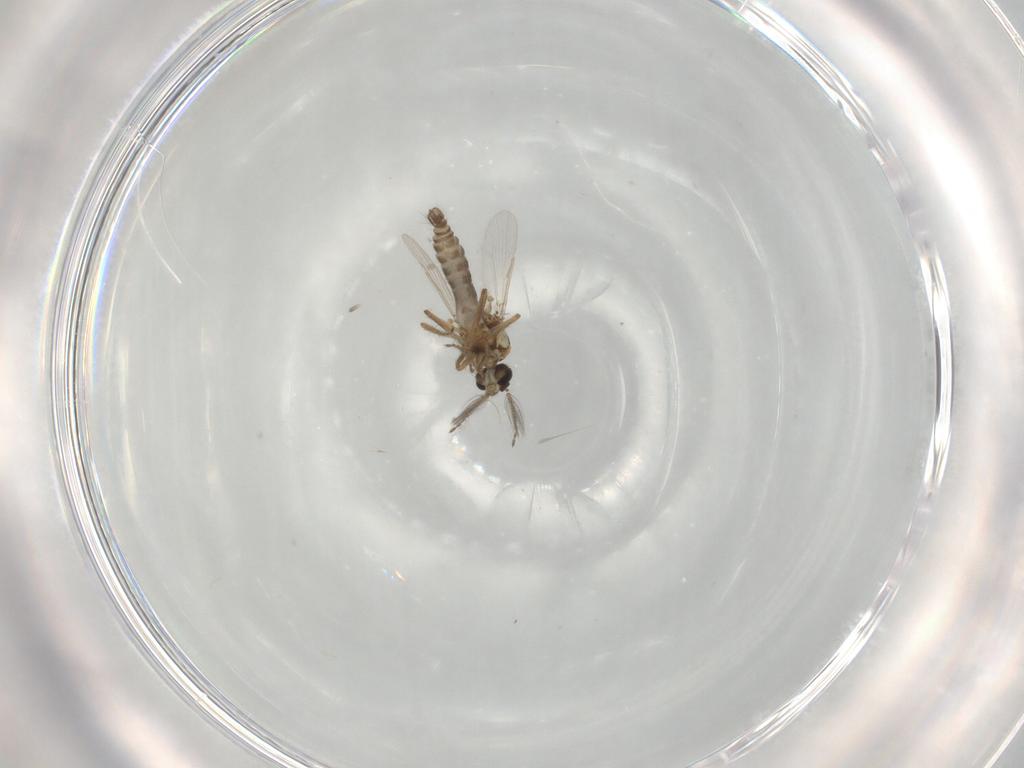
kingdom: Animalia
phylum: Arthropoda
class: Insecta
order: Diptera
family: Ceratopogonidae
